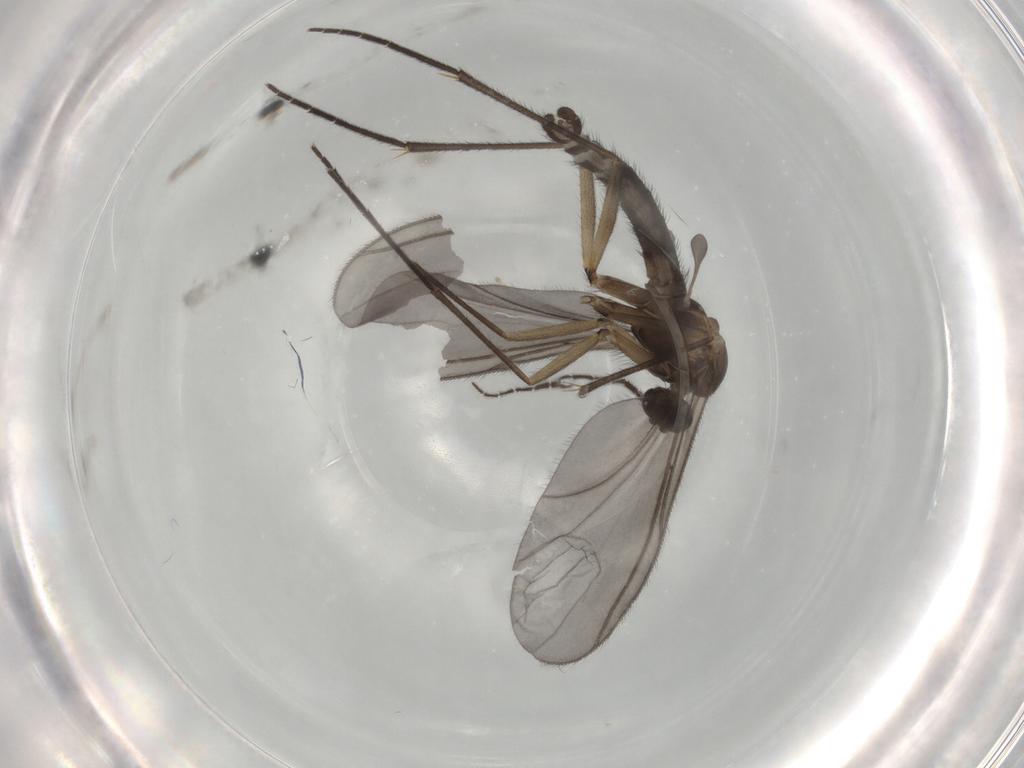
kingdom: Animalia
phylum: Arthropoda
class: Insecta
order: Diptera
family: Sciaridae
